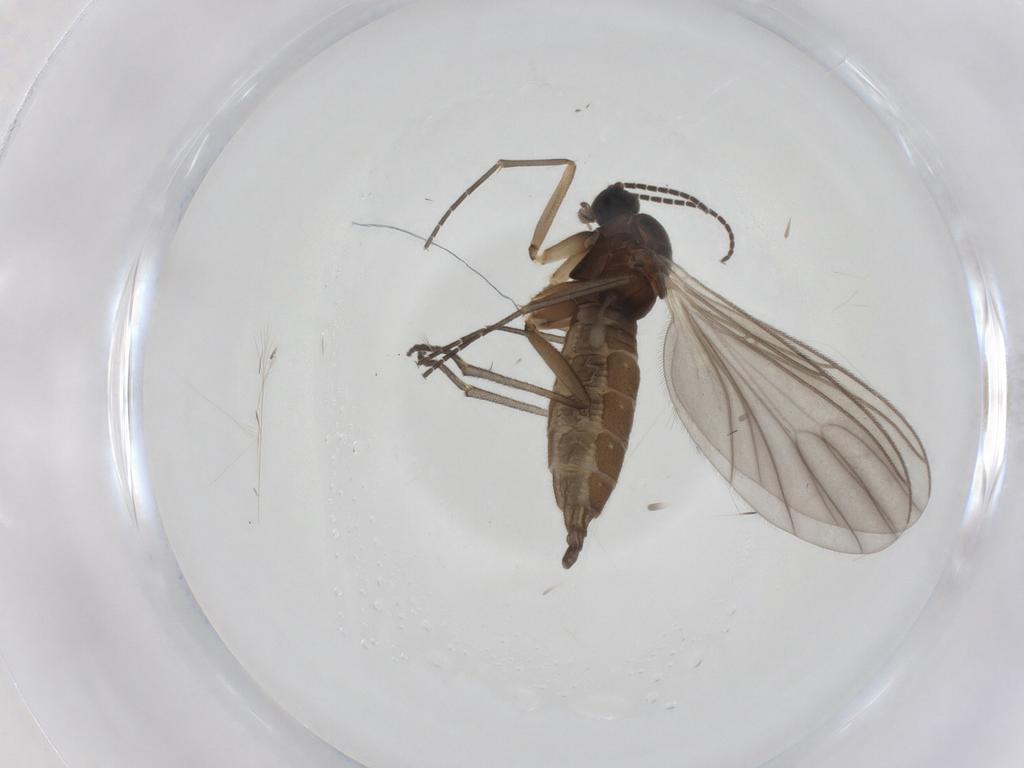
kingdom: Animalia
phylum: Arthropoda
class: Insecta
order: Diptera
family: Sciaridae
